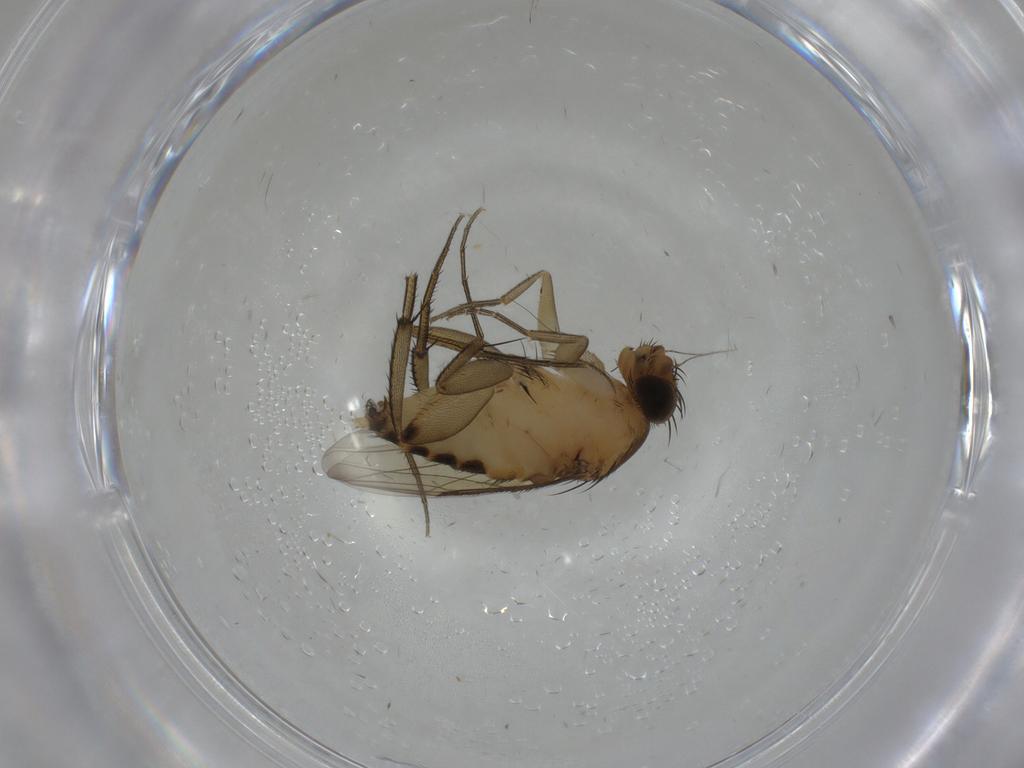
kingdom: Animalia
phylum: Arthropoda
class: Insecta
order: Diptera
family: Phoridae
